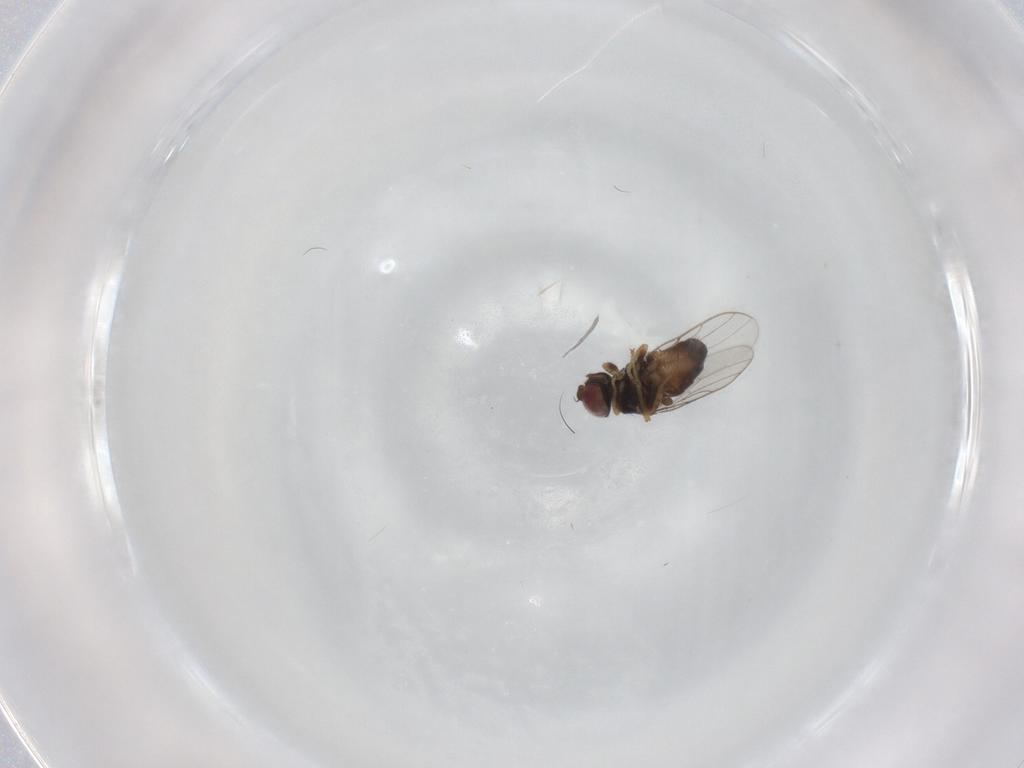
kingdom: Animalia
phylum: Arthropoda
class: Insecta
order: Diptera
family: Chloropidae
